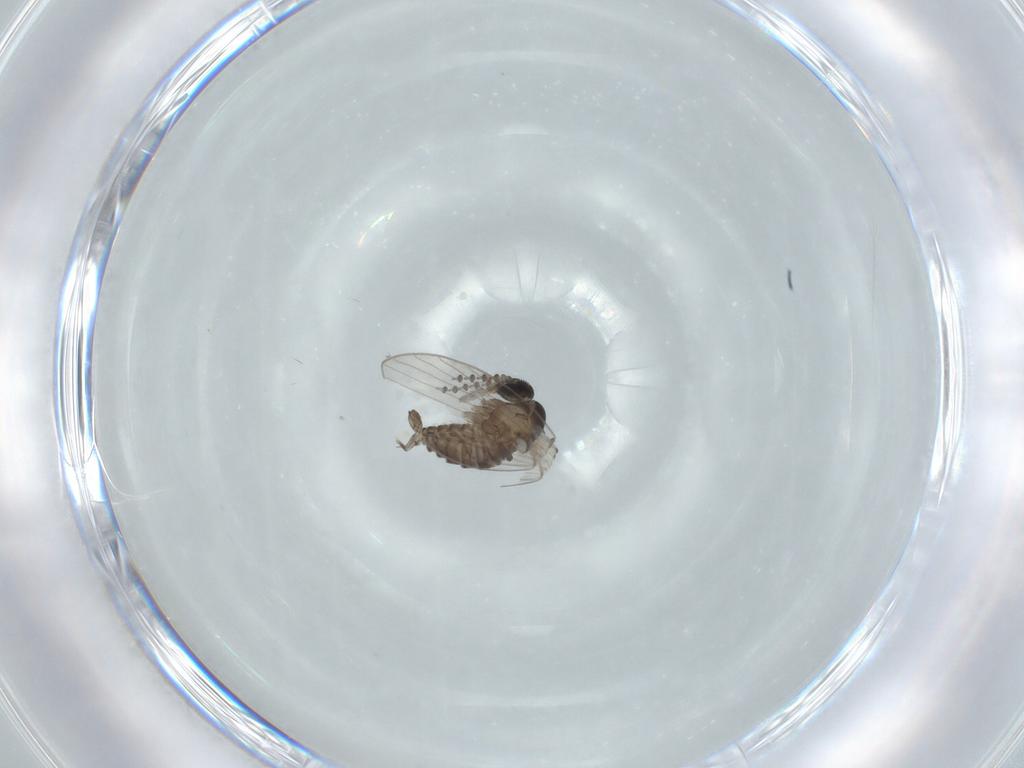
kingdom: Animalia
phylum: Arthropoda
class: Insecta
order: Diptera
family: Psychodidae
